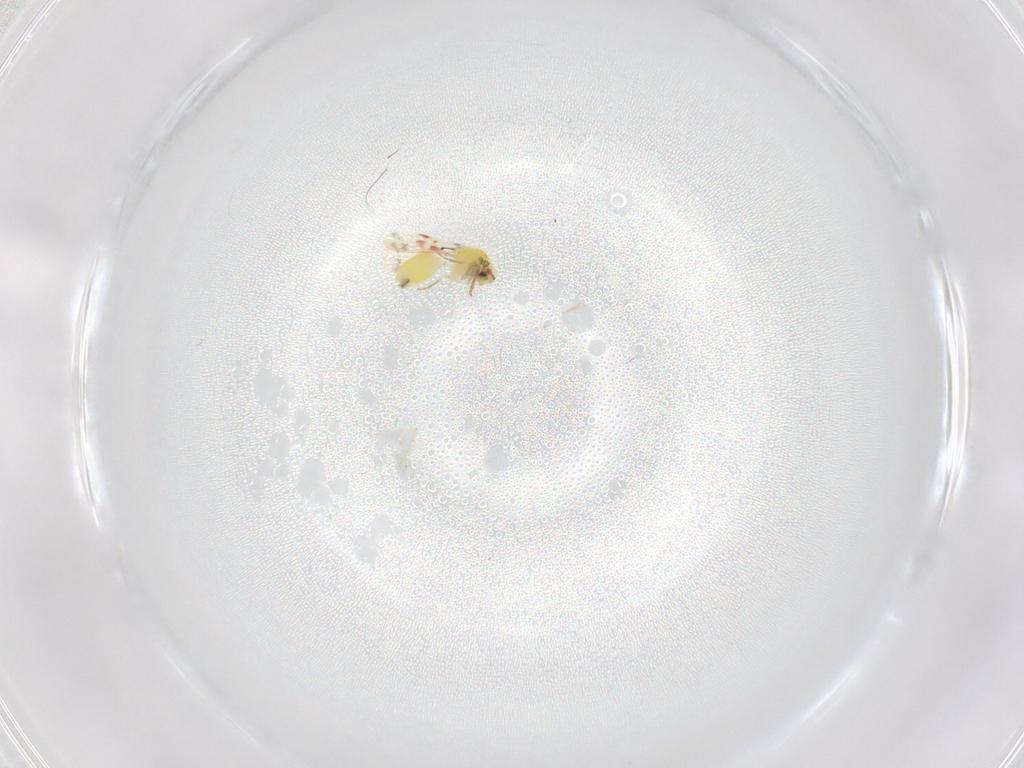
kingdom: Animalia
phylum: Arthropoda
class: Insecta
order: Hemiptera
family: Aleyrodidae
